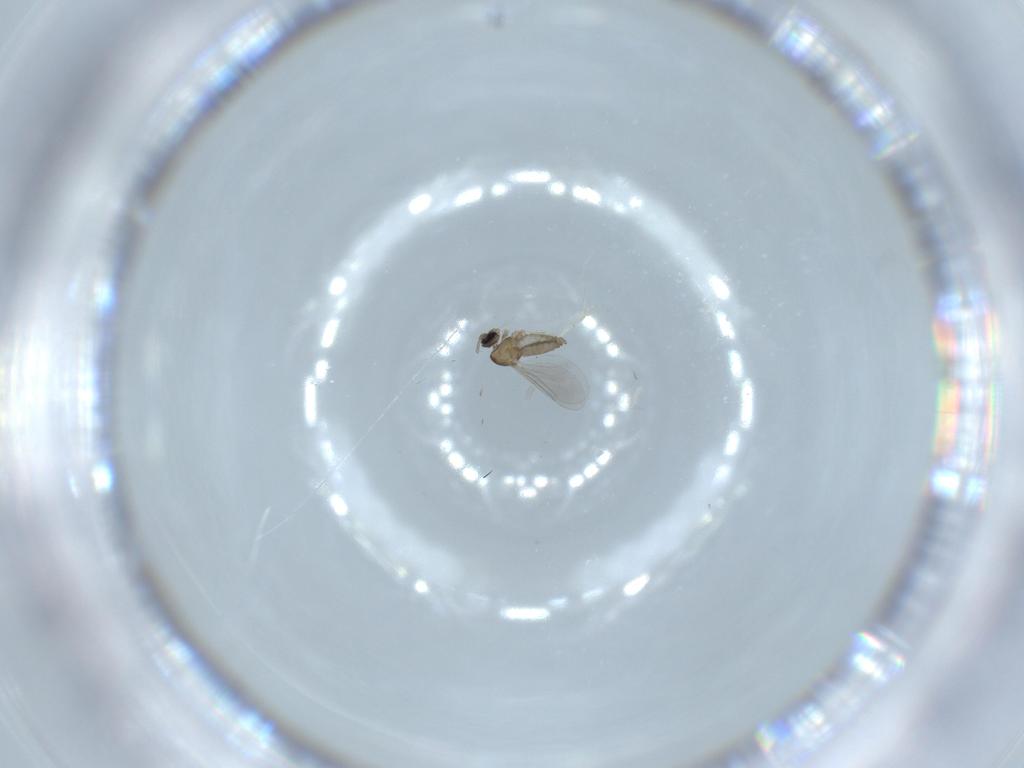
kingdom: Animalia
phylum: Arthropoda
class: Insecta
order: Diptera
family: Cecidomyiidae
